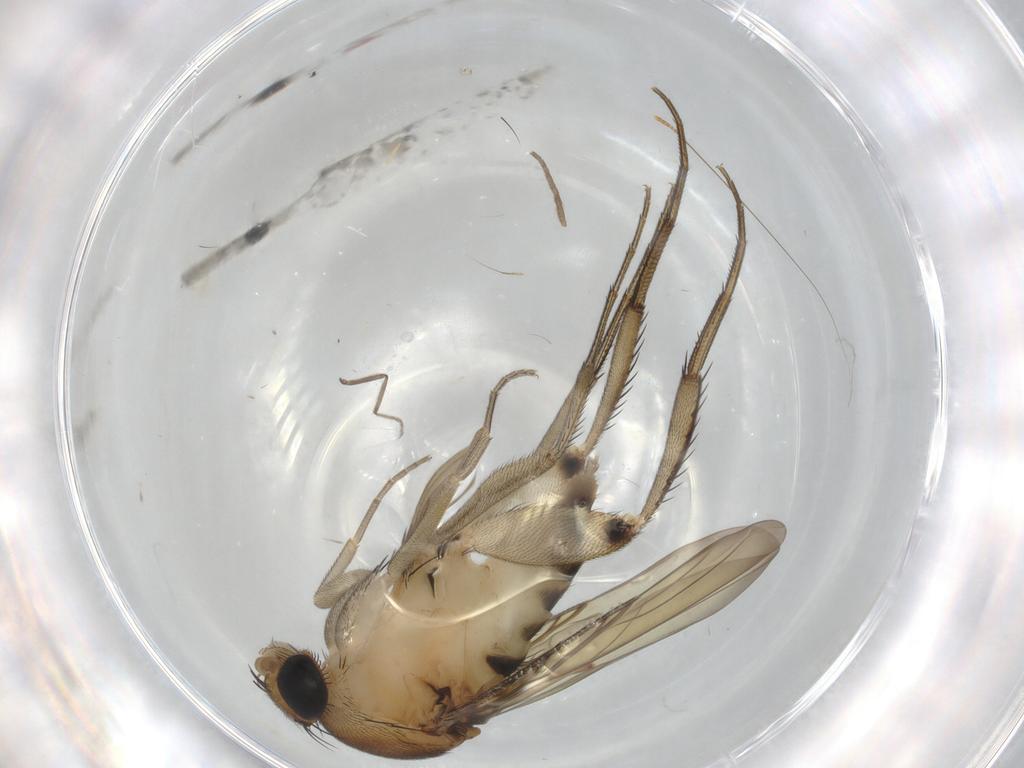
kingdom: Animalia
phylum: Arthropoda
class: Insecta
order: Diptera
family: Phoridae
